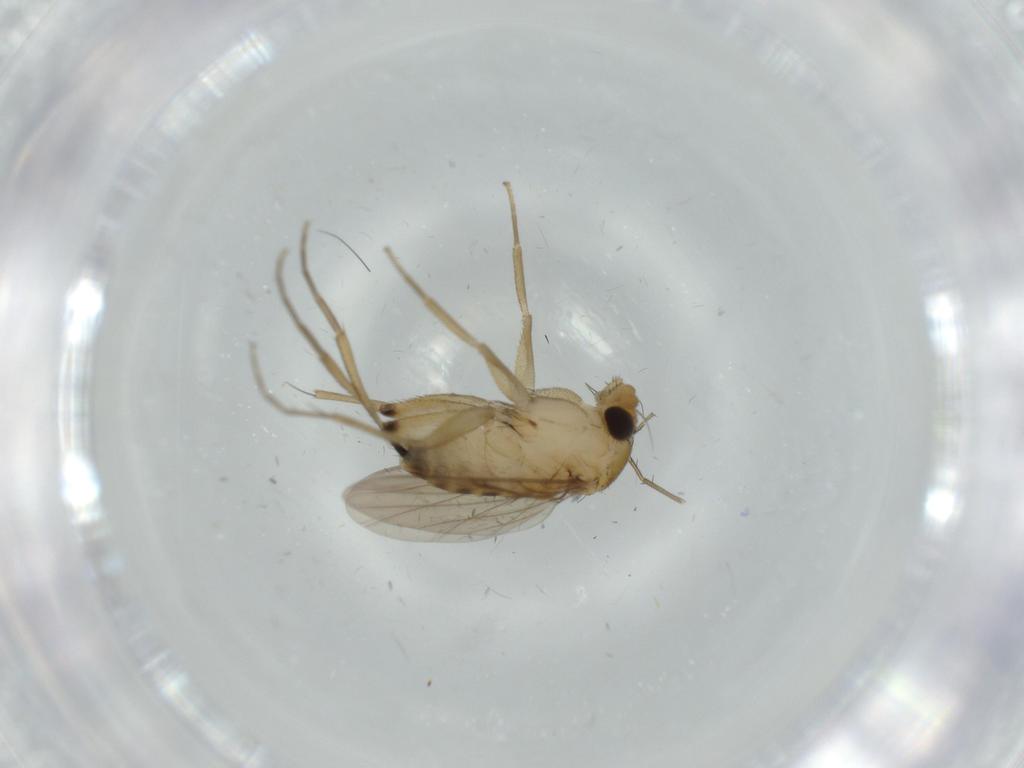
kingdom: Animalia
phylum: Arthropoda
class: Insecta
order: Diptera
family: Phoridae
